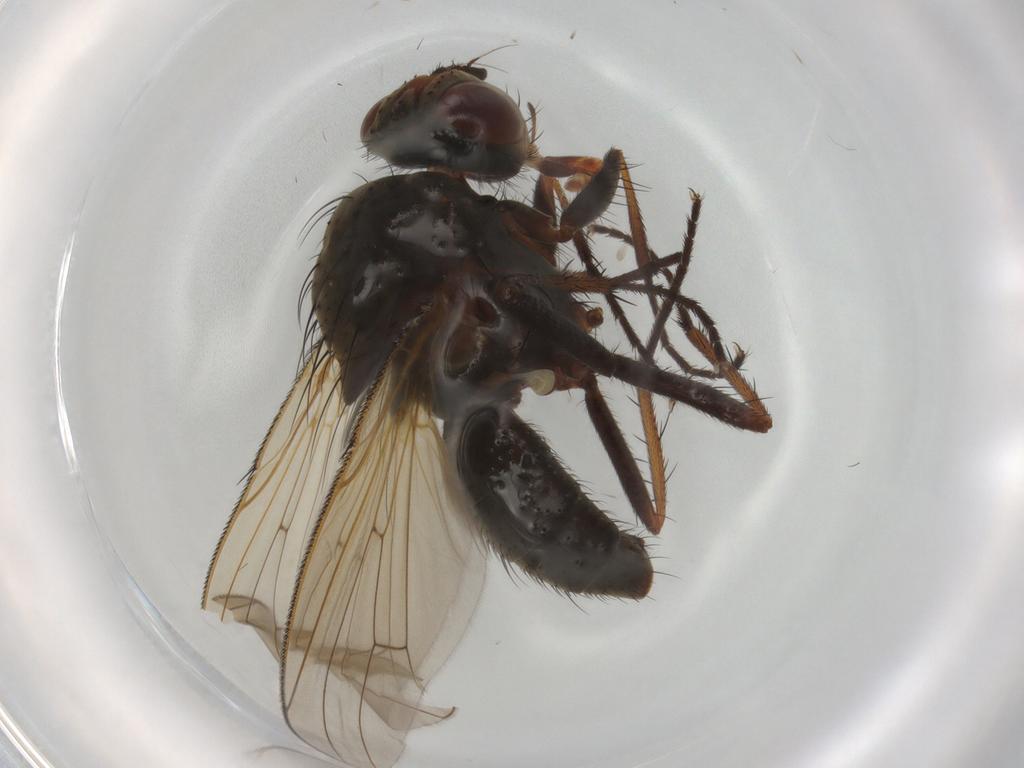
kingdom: Animalia
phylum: Arthropoda
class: Insecta
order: Diptera
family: Anthomyiidae
